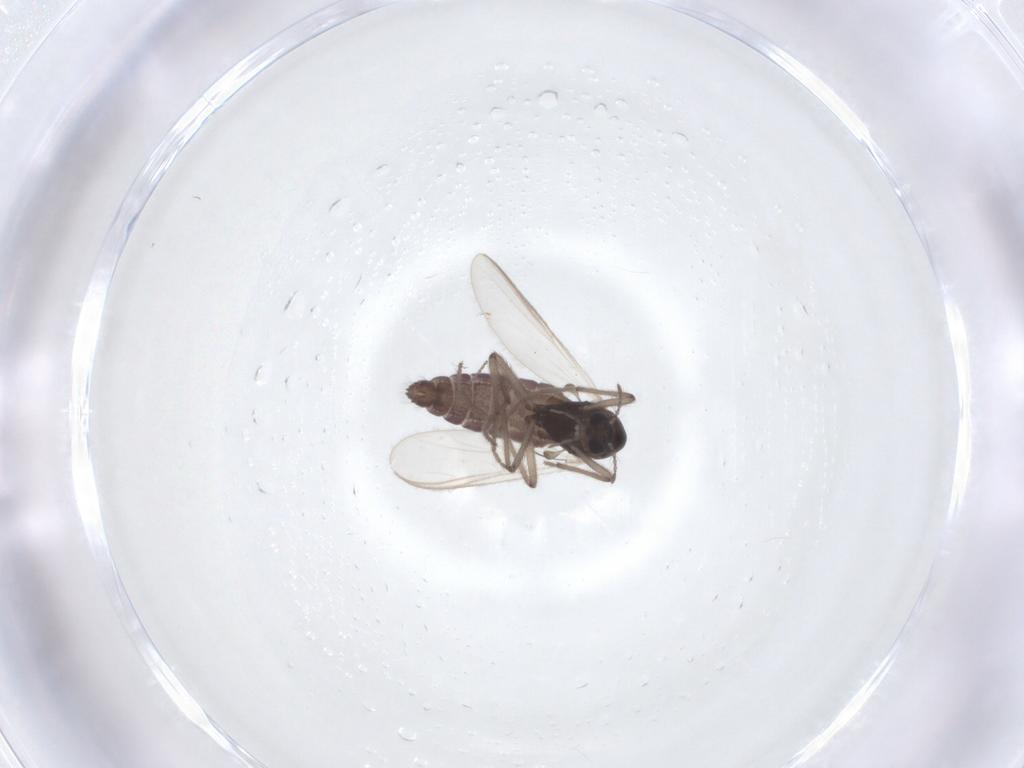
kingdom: Animalia
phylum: Arthropoda
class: Insecta
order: Diptera
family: Chironomidae
